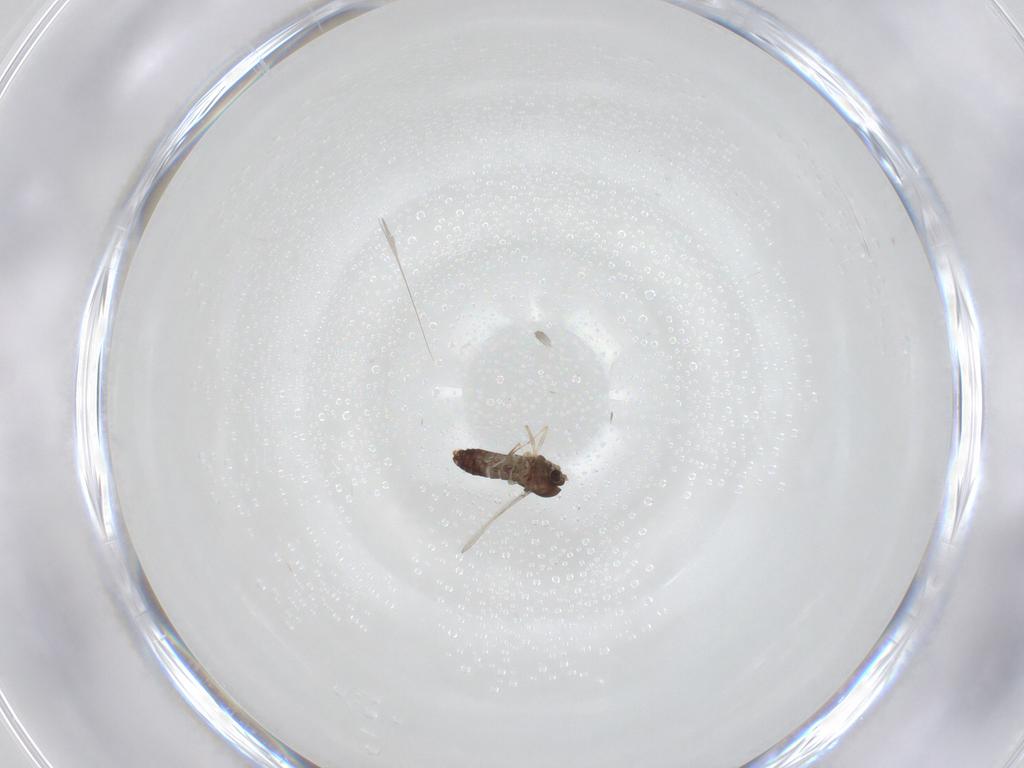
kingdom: Animalia
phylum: Arthropoda
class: Insecta
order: Diptera
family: Chironomidae
